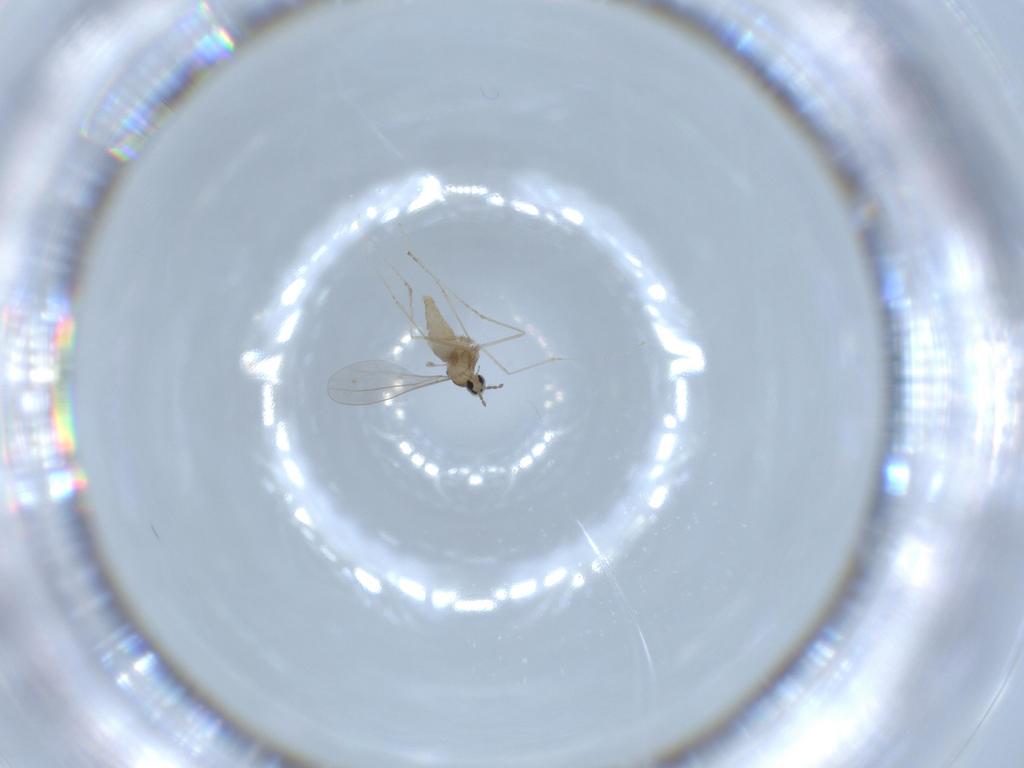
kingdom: Animalia
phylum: Arthropoda
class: Insecta
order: Diptera
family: Cecidomyiidae
